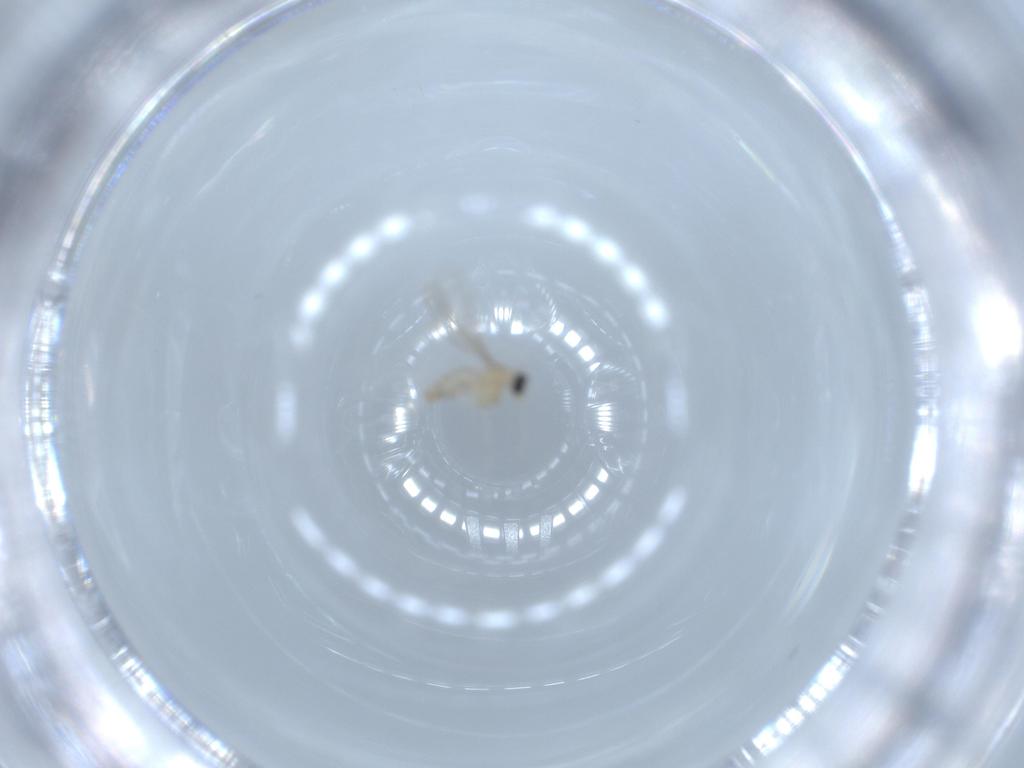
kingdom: Animalia
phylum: Arthropoda
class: Insecta
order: Diptera
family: Cecidomyiidae
